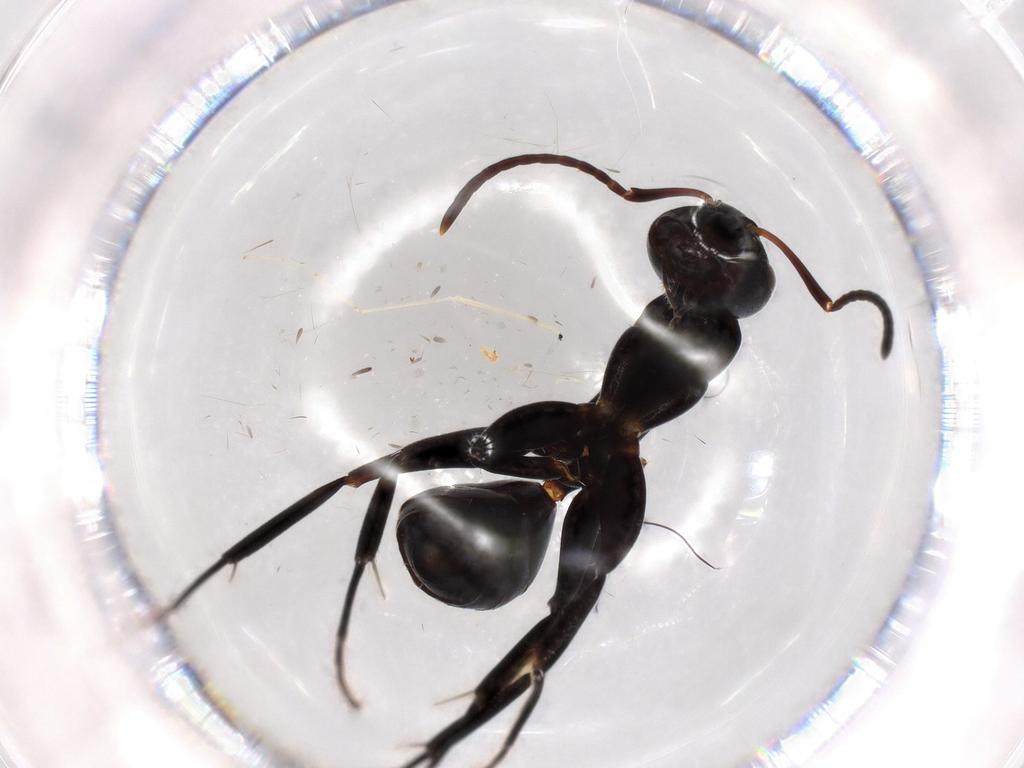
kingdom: Animalia
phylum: Arthropoda
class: Insecta
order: Hymenoptera
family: Formicidae
